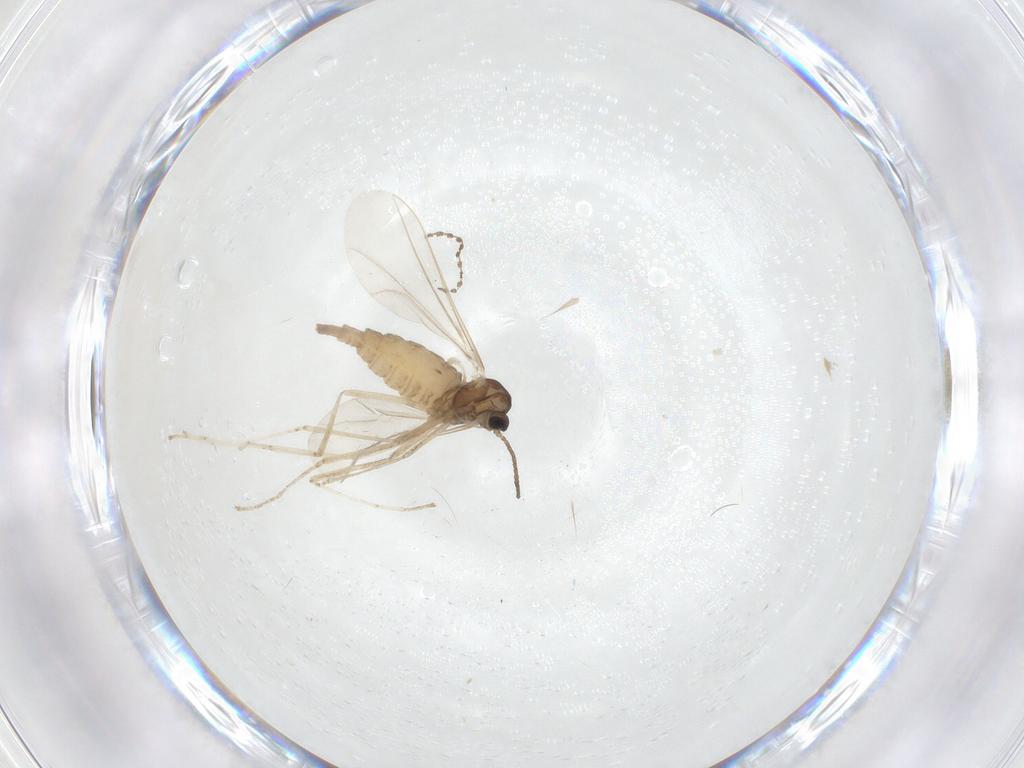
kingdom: Animalia
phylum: Arthropoda
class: Insecta
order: Diptera
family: Cecidomyiidae
